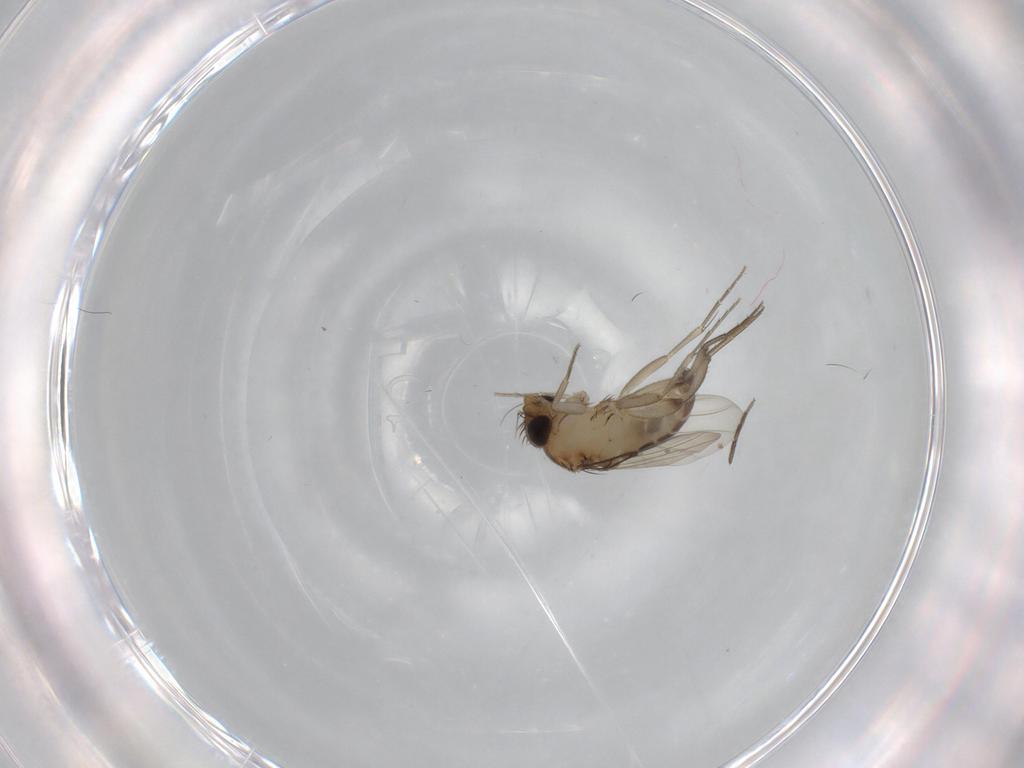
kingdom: Animalia
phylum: Arthropoda
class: Insecta
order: Diptera
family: Phoridae
